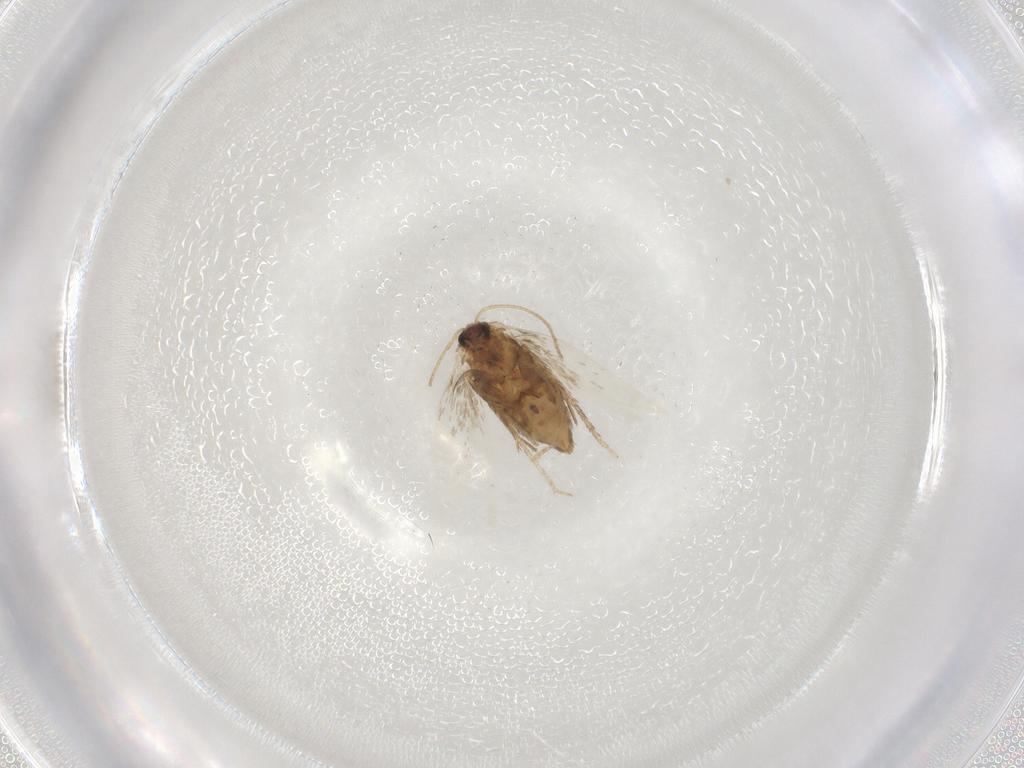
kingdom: Animalia
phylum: Arthropoda
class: Insecta
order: Lepidoptera
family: Nepticulidae
